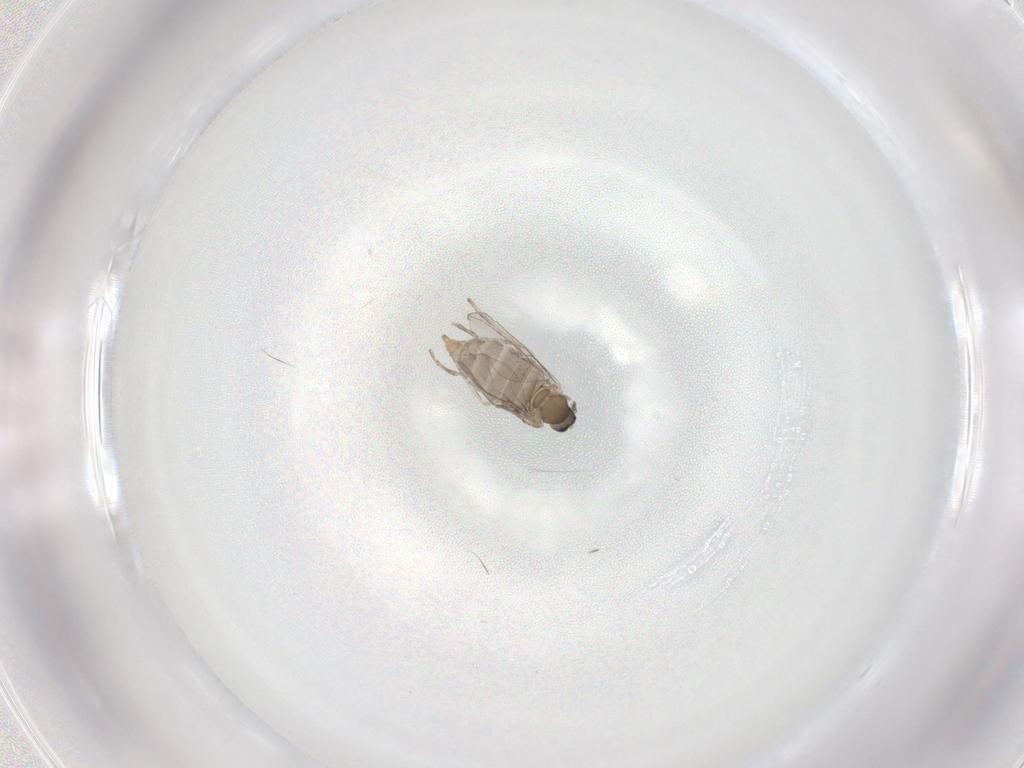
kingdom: Animalia
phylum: Arthropoda
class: Insecta
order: Diptera
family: Cecidomyiidae
